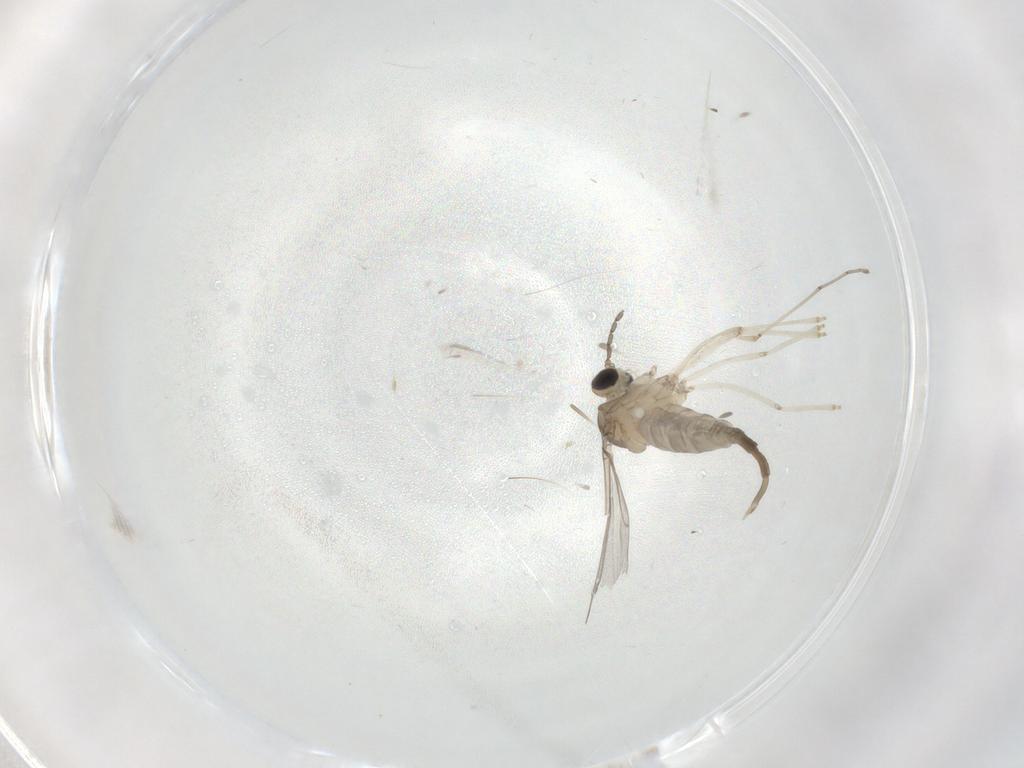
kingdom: Animalia
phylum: Arthropoda
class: Insecta
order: Diptera
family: Cecidomyiidae
